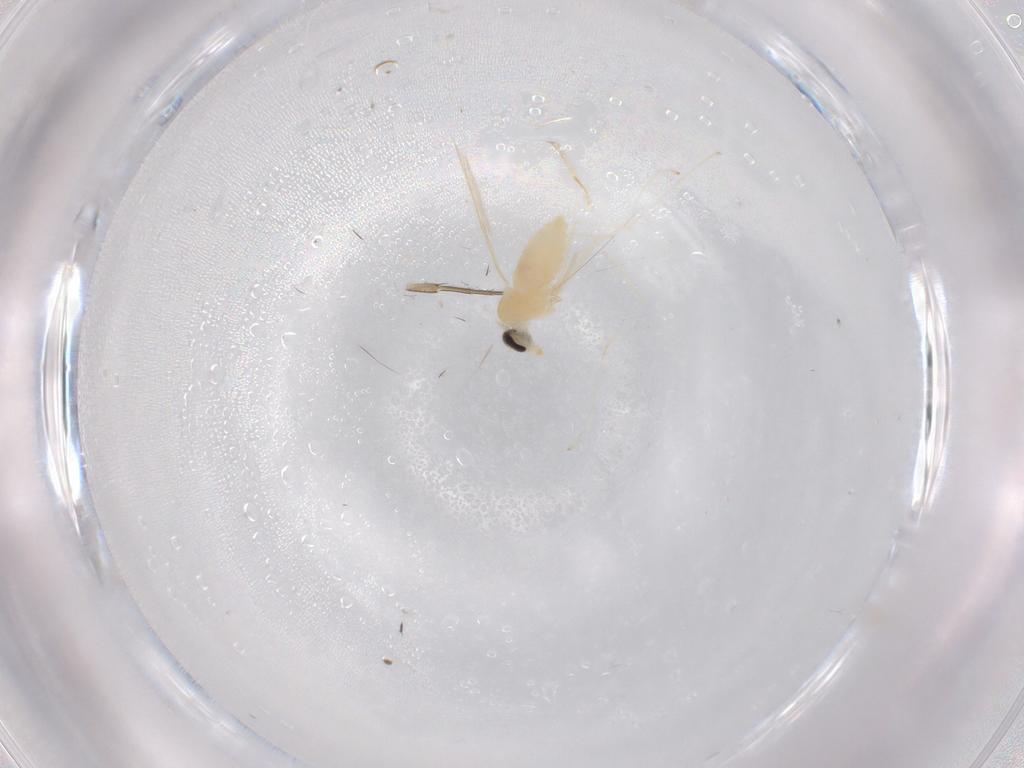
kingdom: Animalia
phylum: Arthropoda
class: Insecta
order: Diptera
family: Cecidomyiidae
